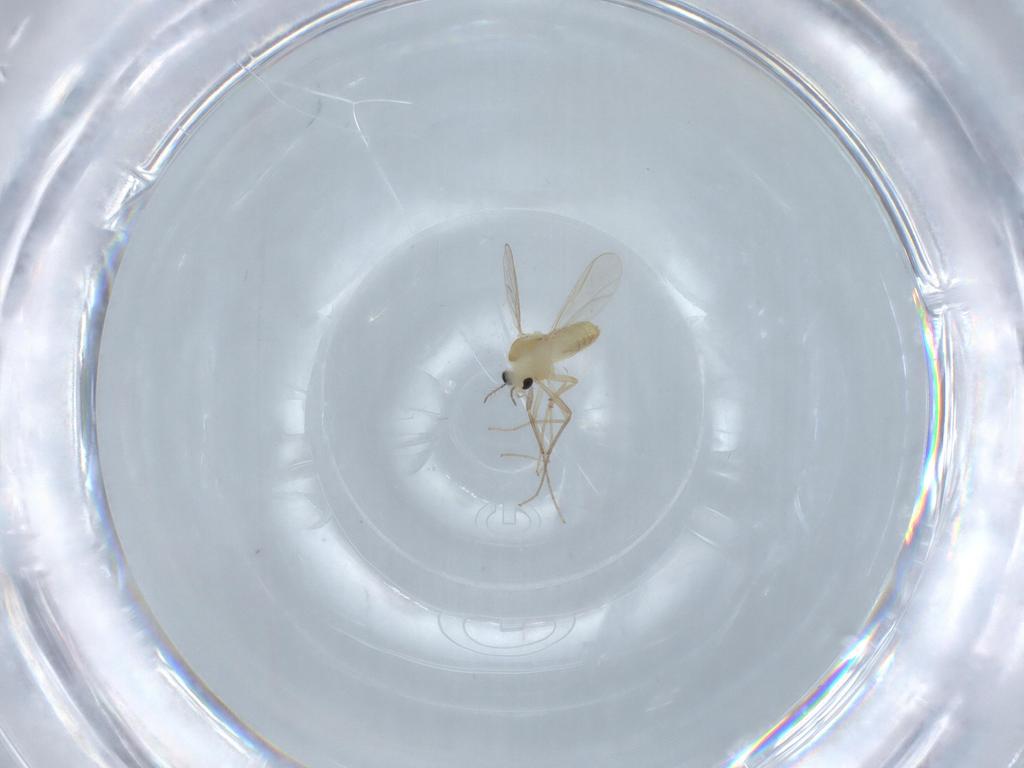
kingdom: Animalia
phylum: Arthropoda
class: Insecta
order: Diptera
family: Chironomidae
